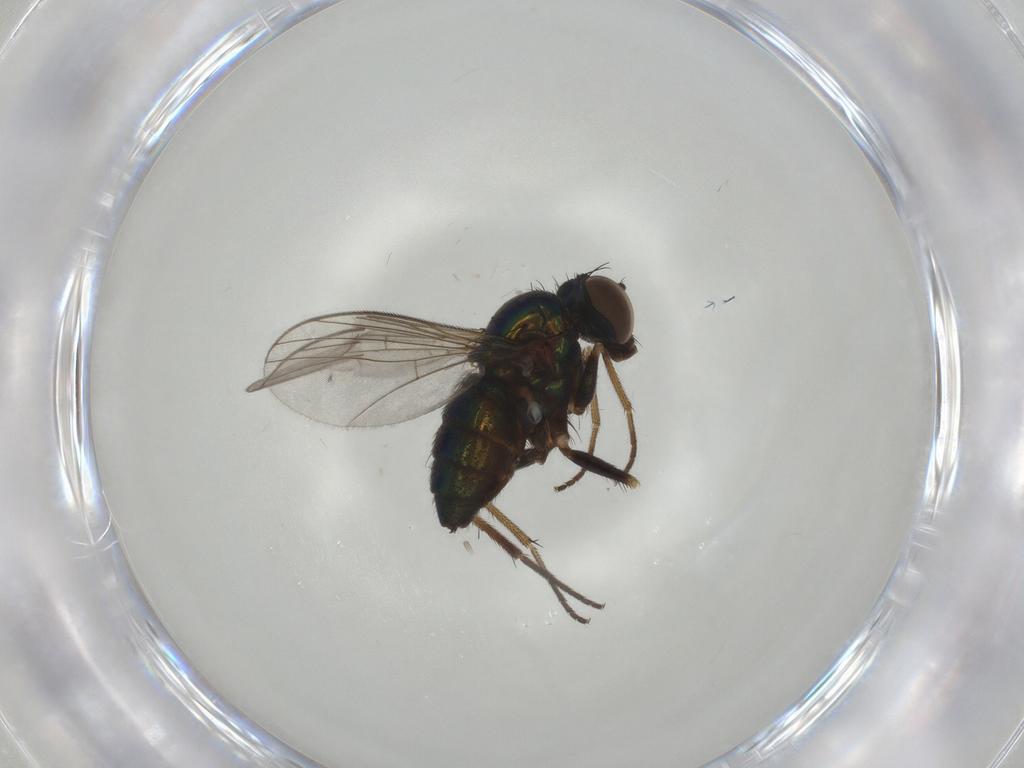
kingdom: Animalia
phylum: Arthropoda
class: Insecta
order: Diptera
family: Dolichopodidae
